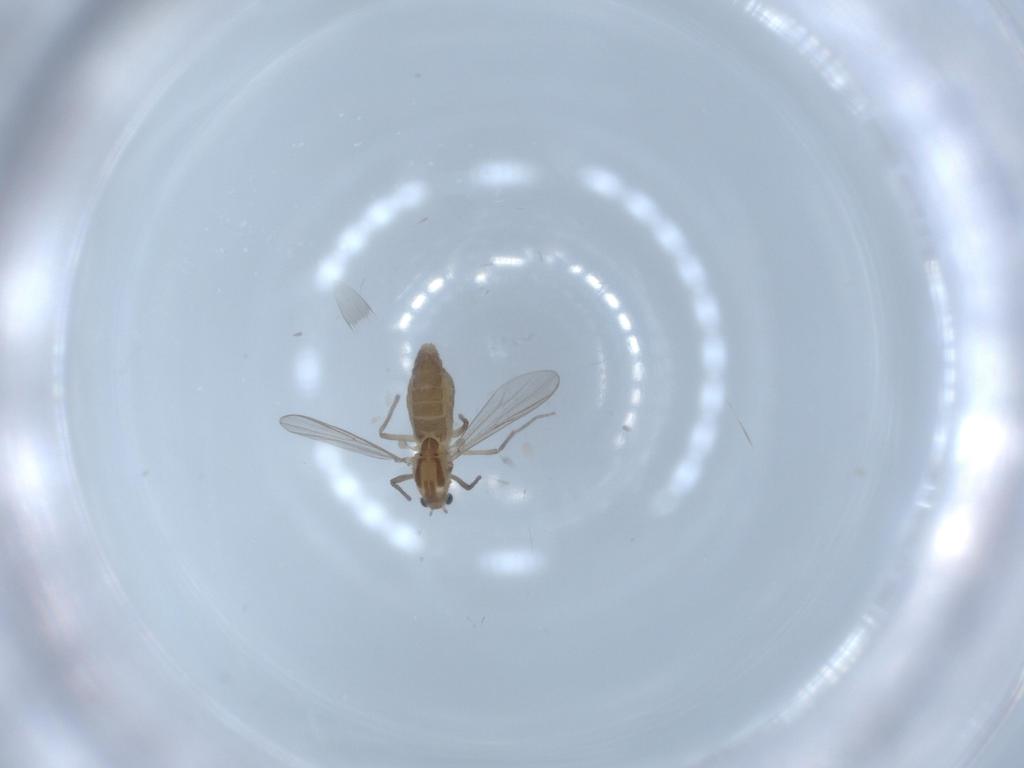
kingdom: Animalia
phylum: Arthropoda
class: Insecta
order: Diptera
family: Chironomidae
